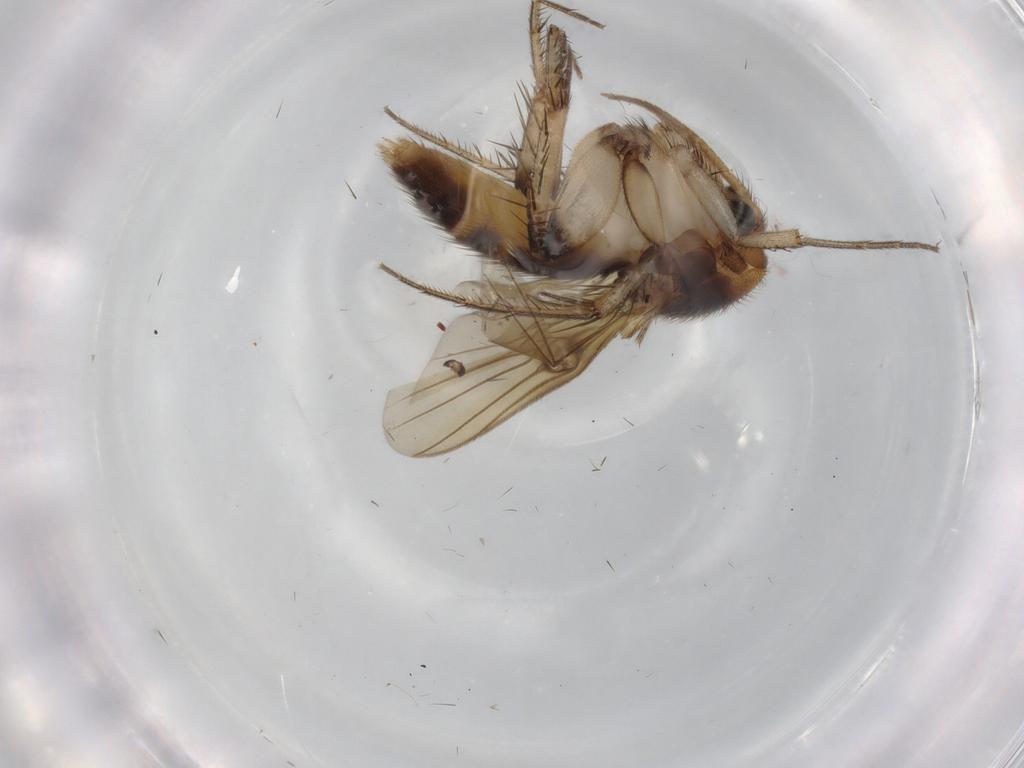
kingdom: Animalia
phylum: Arthropoda
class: Insecta
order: Diptera
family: Mycetophilidae
